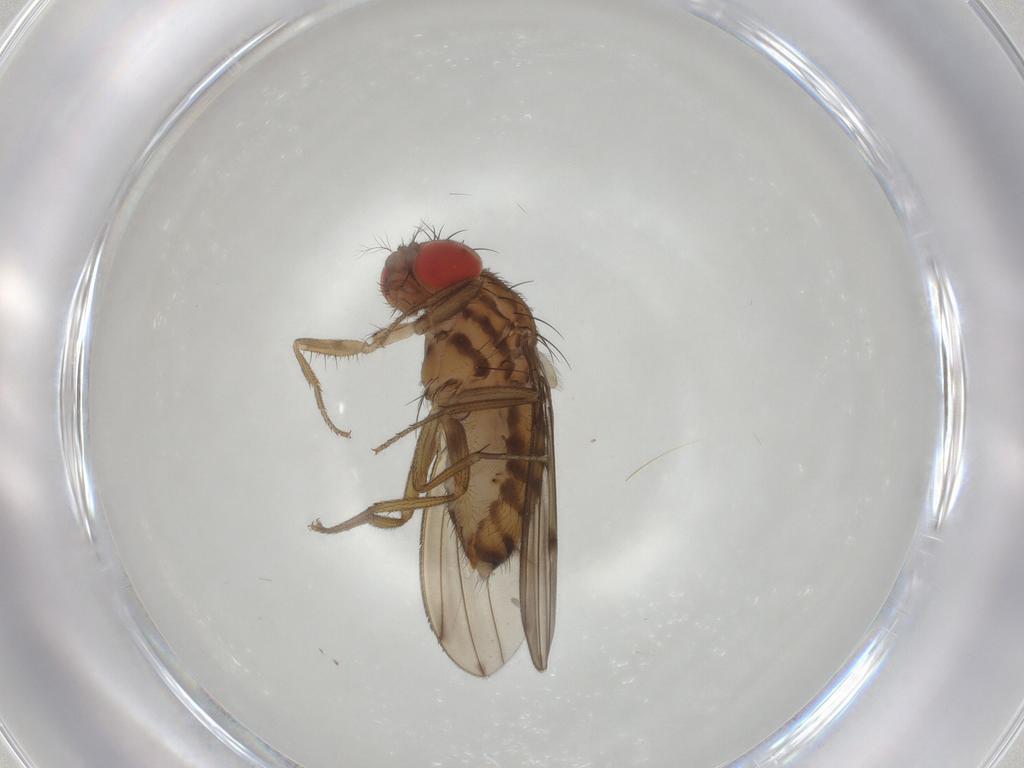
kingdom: Animalia
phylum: Arthropoda
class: Insecta
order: Diptera
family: Drosophilidae
